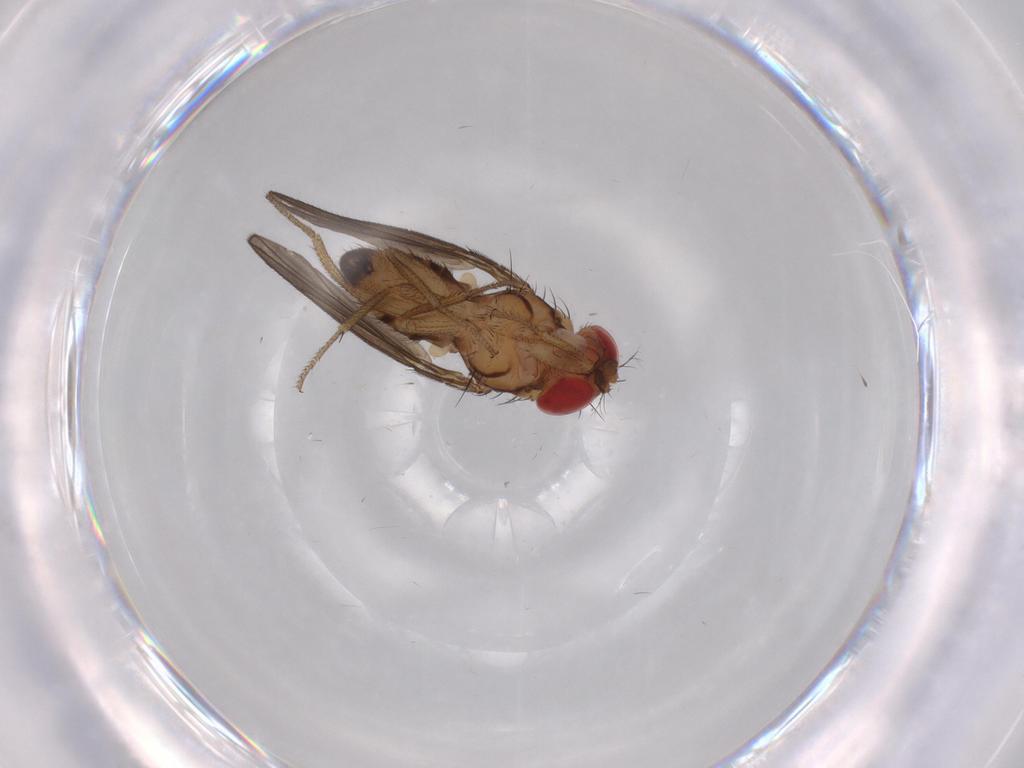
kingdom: Animalia
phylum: Arthropoda
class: Insecta
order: Diptera
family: Drosophilidae
